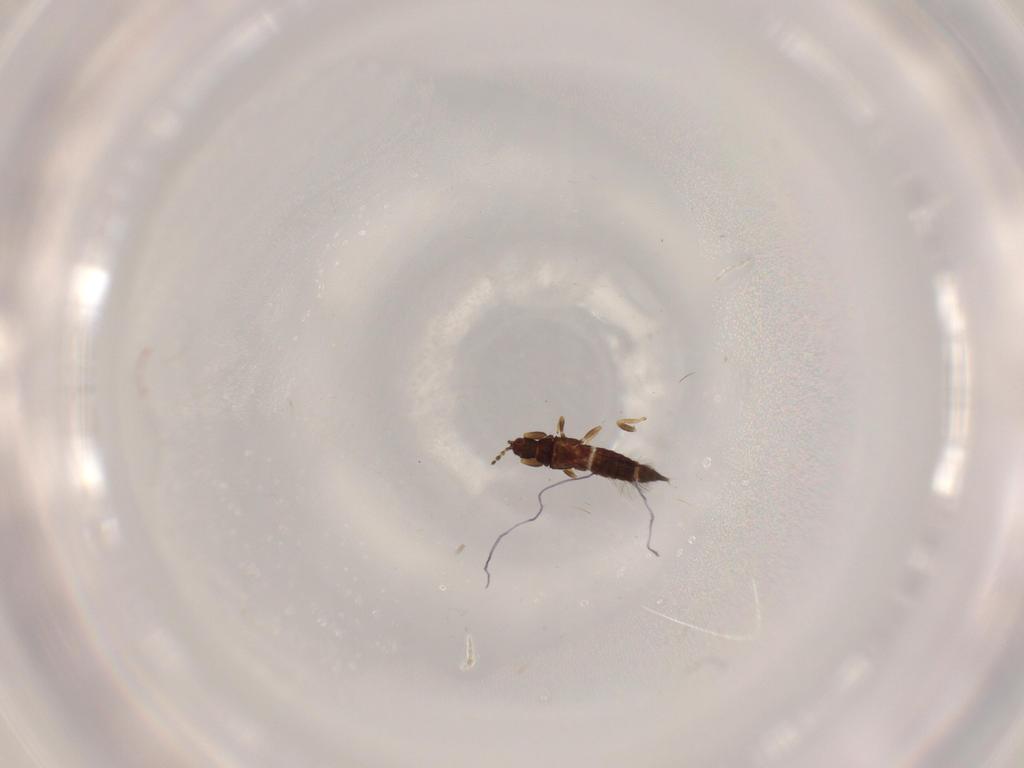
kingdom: Animalia
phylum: Arthropoda
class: Insecta
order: Thysanoptera
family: Phlaeothripidae
